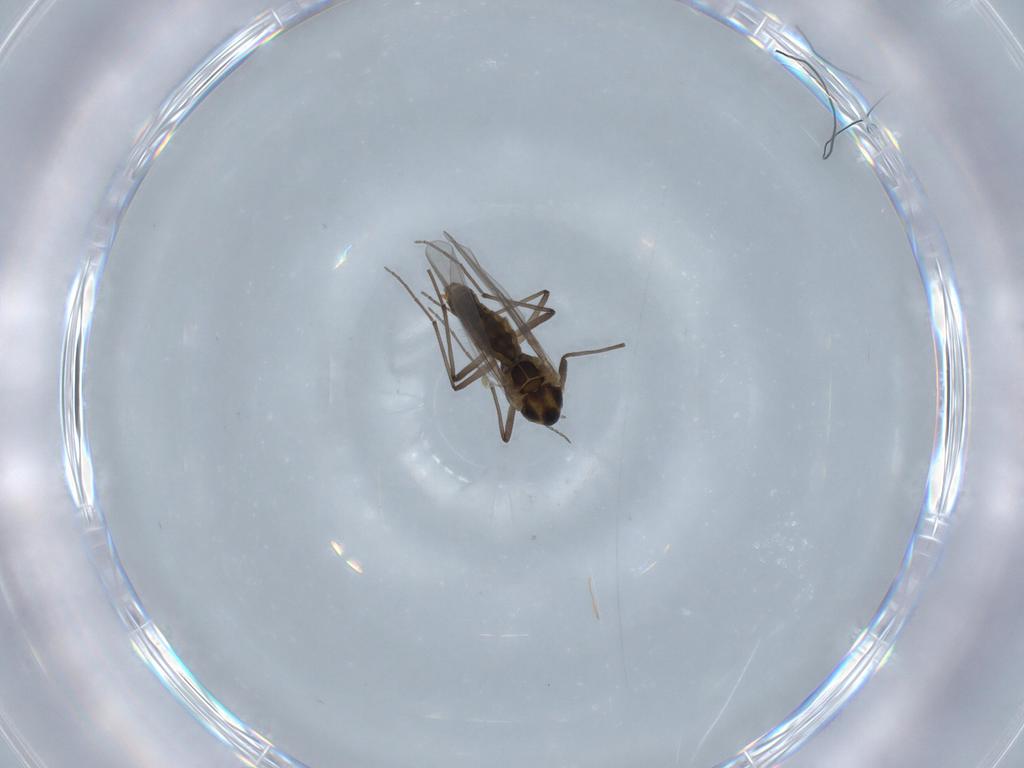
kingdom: Animalia
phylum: Arthropoda
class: Insecta
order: Diptera
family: Chironomidae
